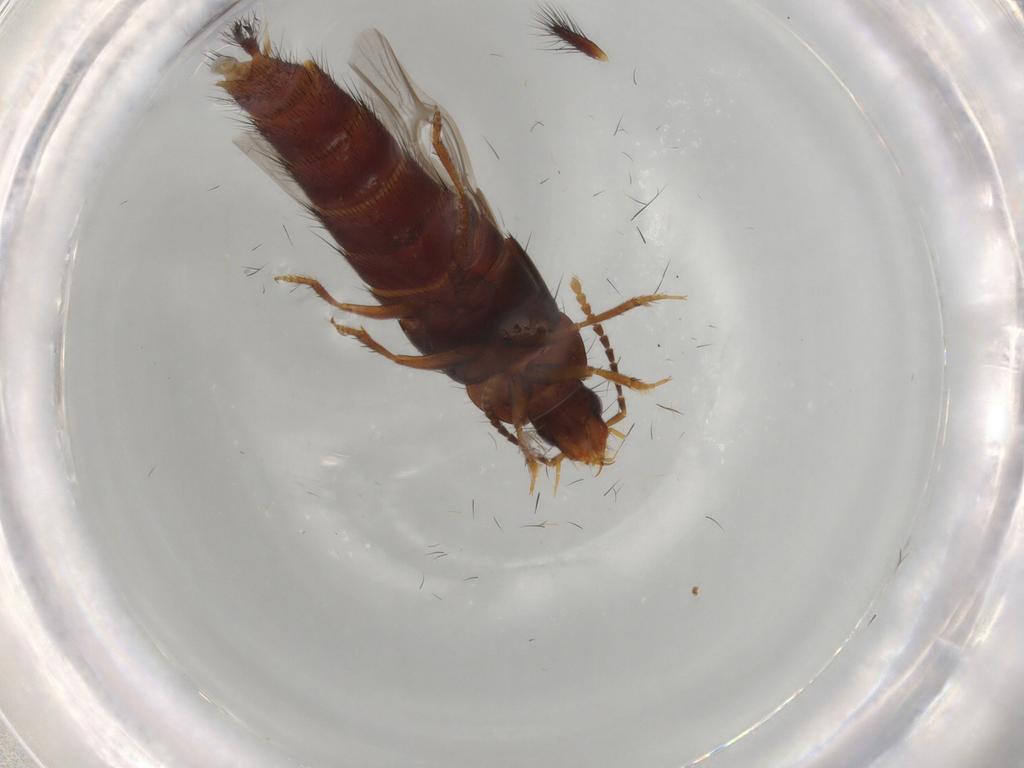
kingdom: Animalia
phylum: Arthropoda
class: Insecta
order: Coleoptera
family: Staphylinidae
